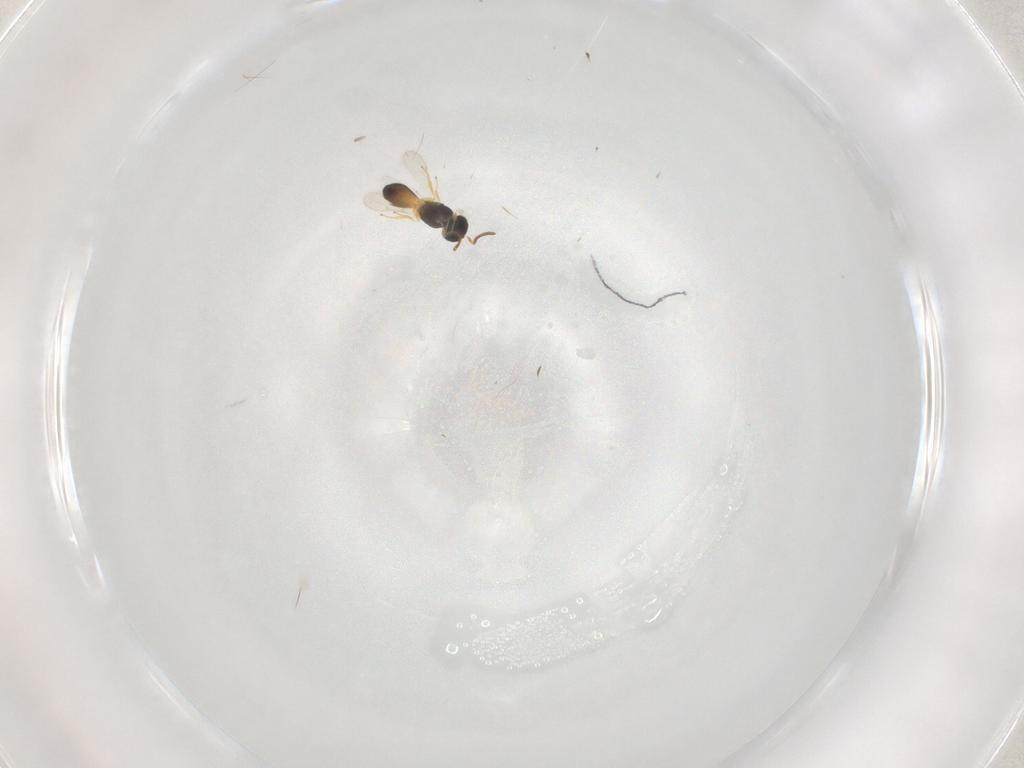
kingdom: Animalia
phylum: Arthropoda
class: Insecta
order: Hymenoptera
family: Scelionidae
